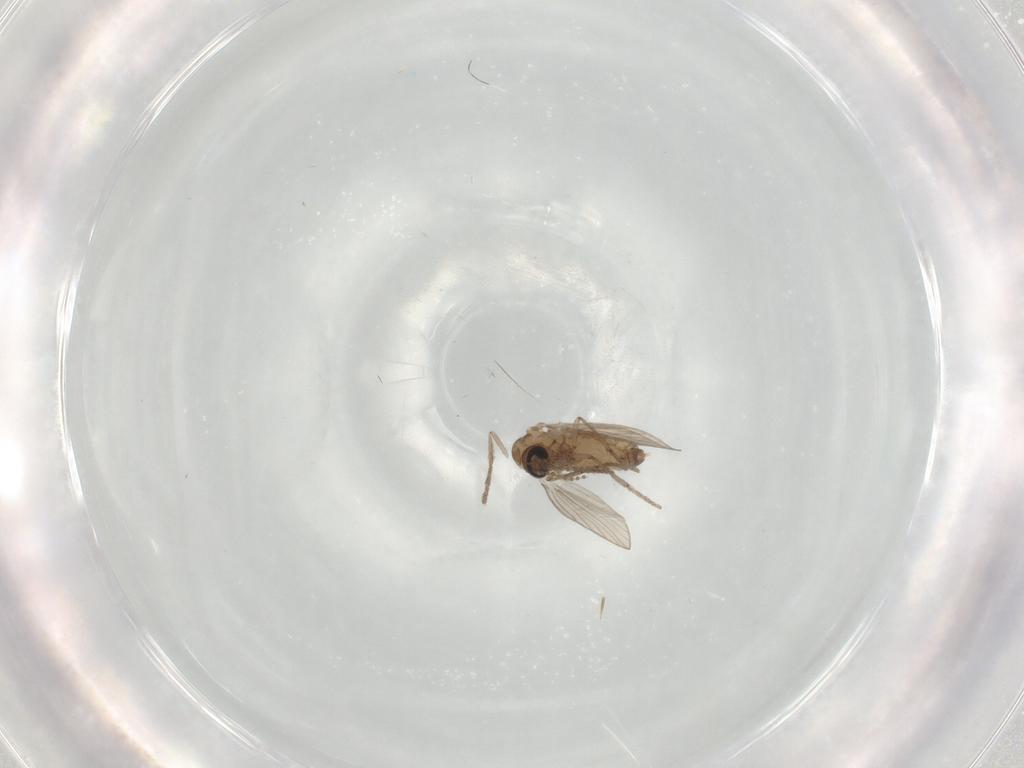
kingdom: Animalia
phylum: Arthropoda
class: Insecta
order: Diptera
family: Psychodidae
